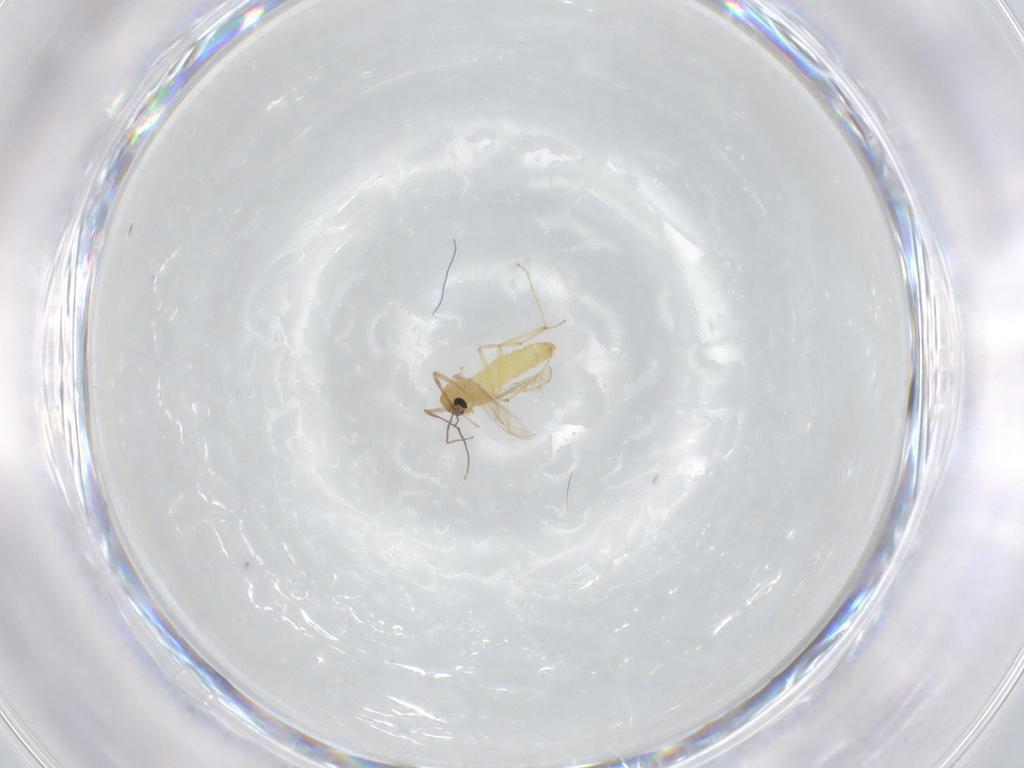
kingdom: Animalia
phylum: Arthropoda
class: Insecta
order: Diptera
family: Chironomidae
